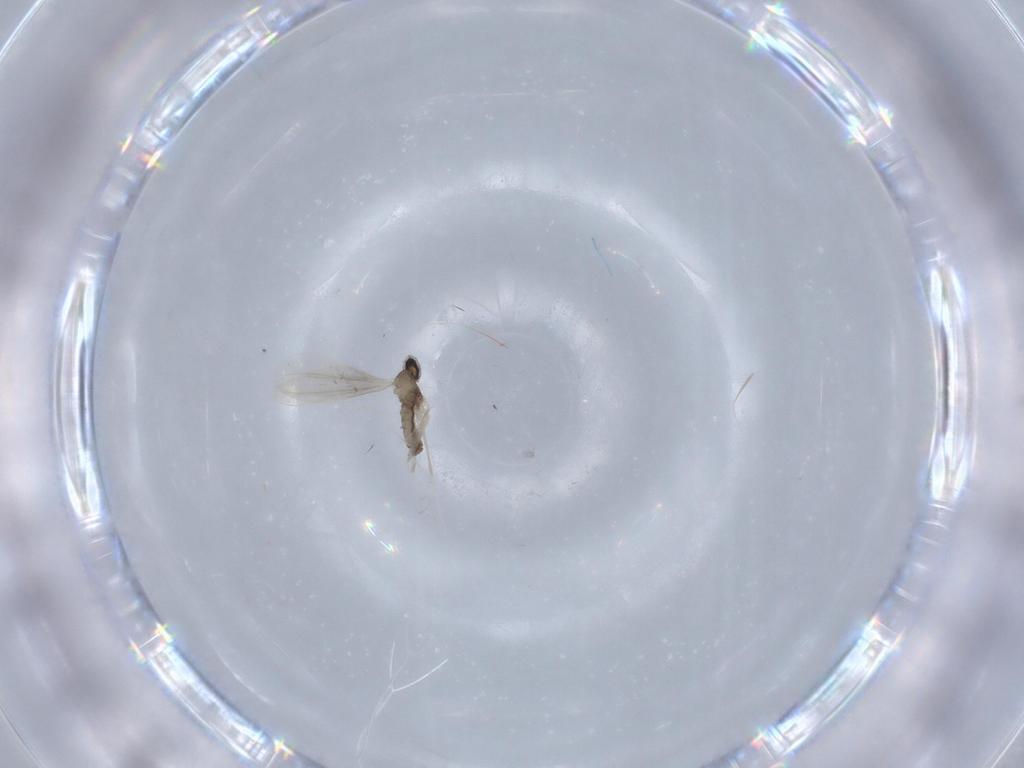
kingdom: Animalia
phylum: Arthropoda
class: Insecta
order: Diptera
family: Cecidomyiidae
